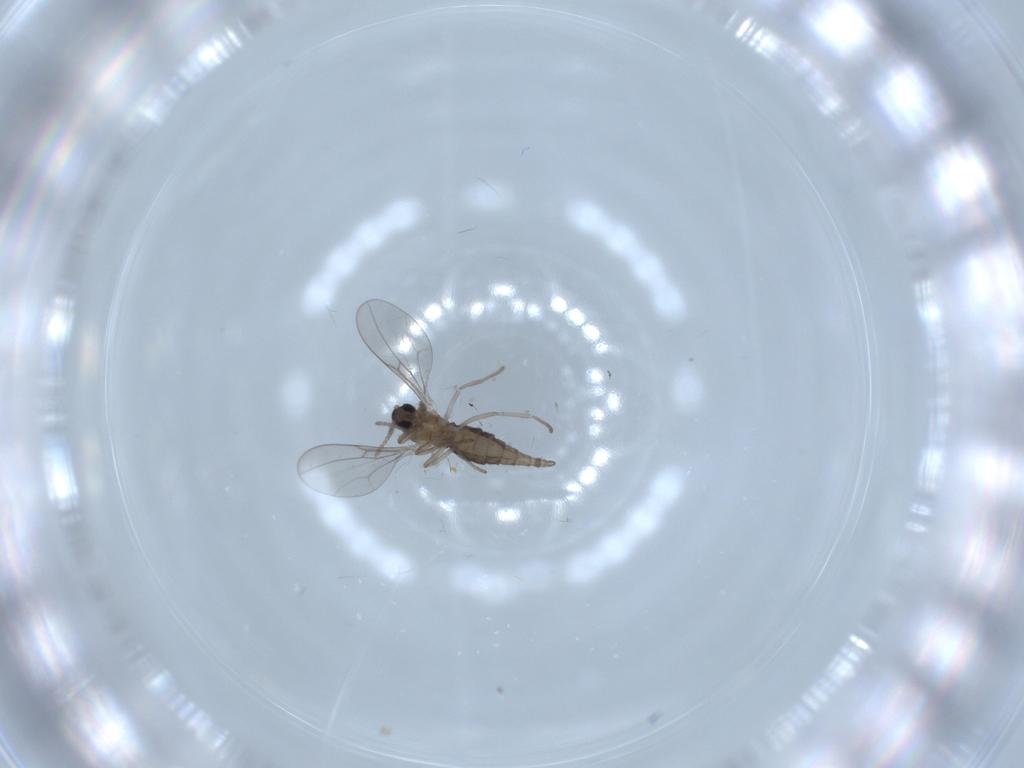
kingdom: Animalia
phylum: Arthropoda
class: Insecta
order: Diptera
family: Cecidomyiidae
